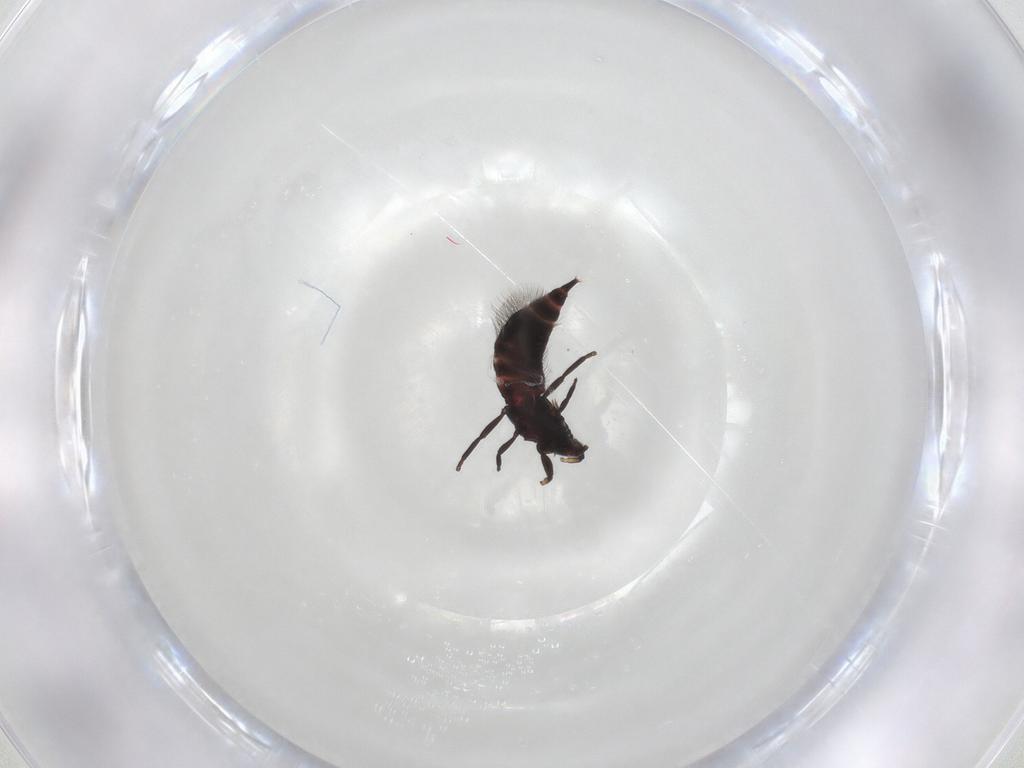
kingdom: Animalia
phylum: Arthropoda
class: Insecta
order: Thysanoptera
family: Phlaeothripidae
